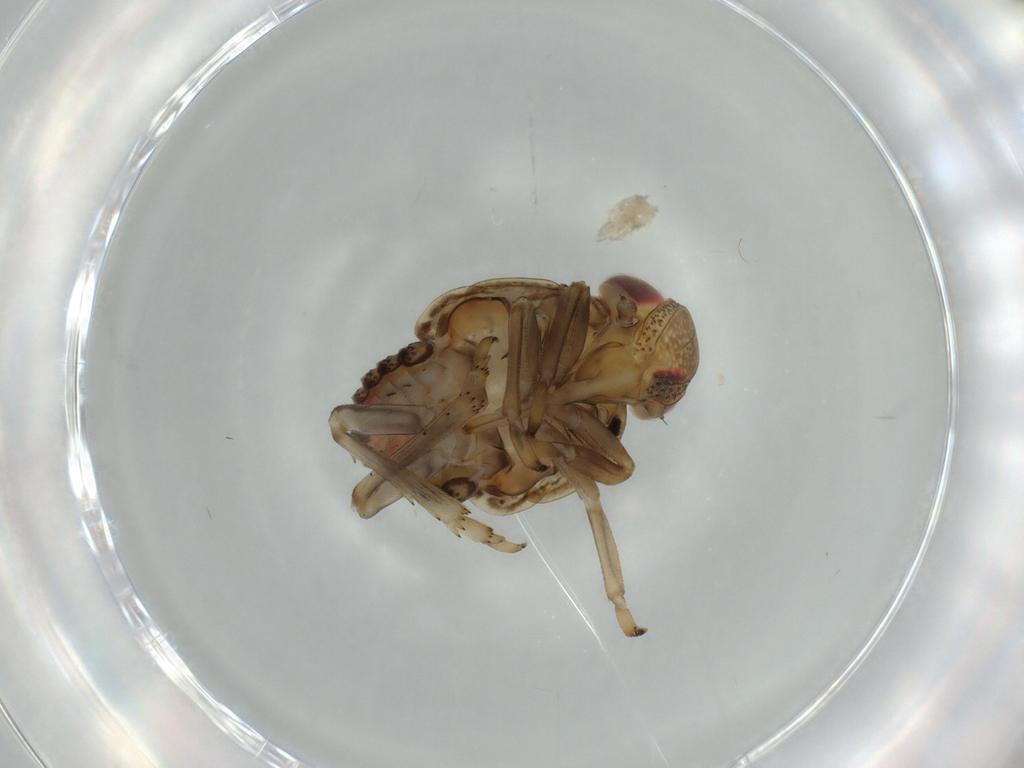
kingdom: Animalia
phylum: Arthropoda
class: Insecta
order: Hemiptera
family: Issidae
